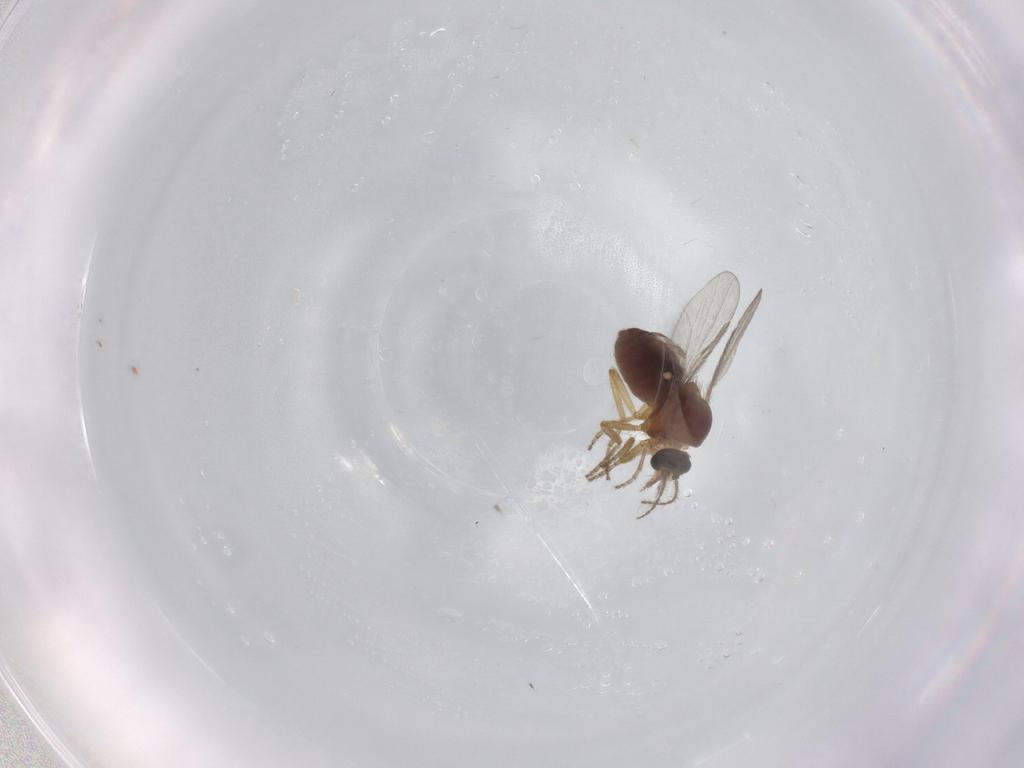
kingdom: Animalia
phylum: Arthropoda
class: Insecta
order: Diptera
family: Ceratopogonidae
